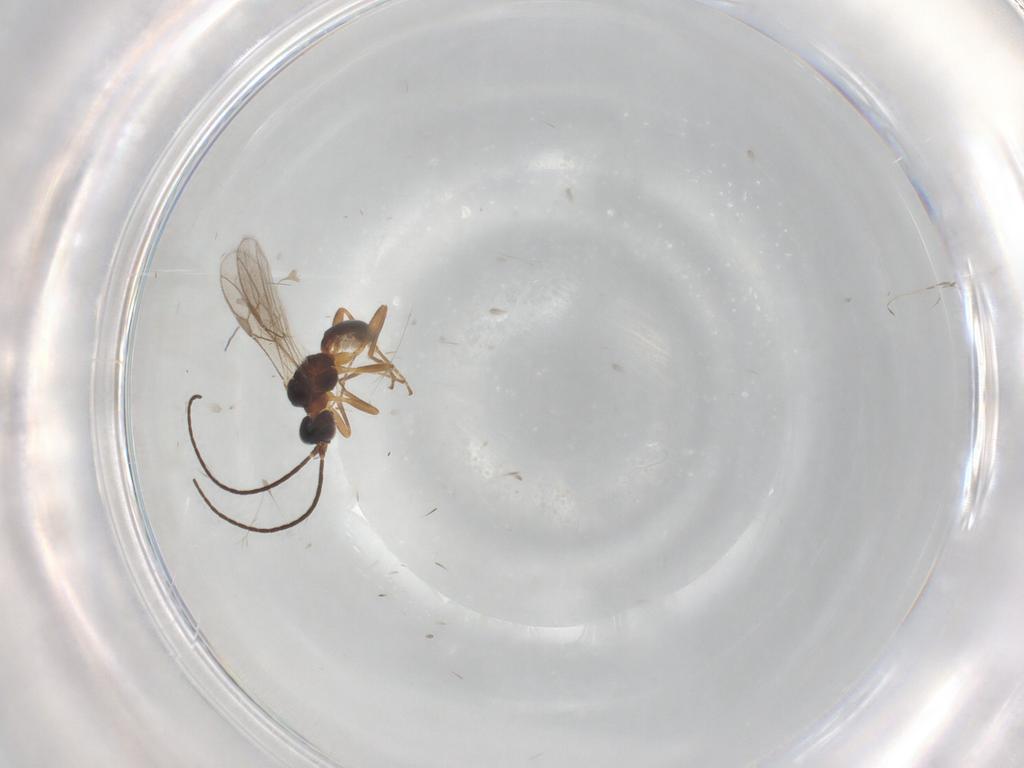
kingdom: Animalia
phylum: Arthropoda
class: Insecta
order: Hymenoptera
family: Braconidae
